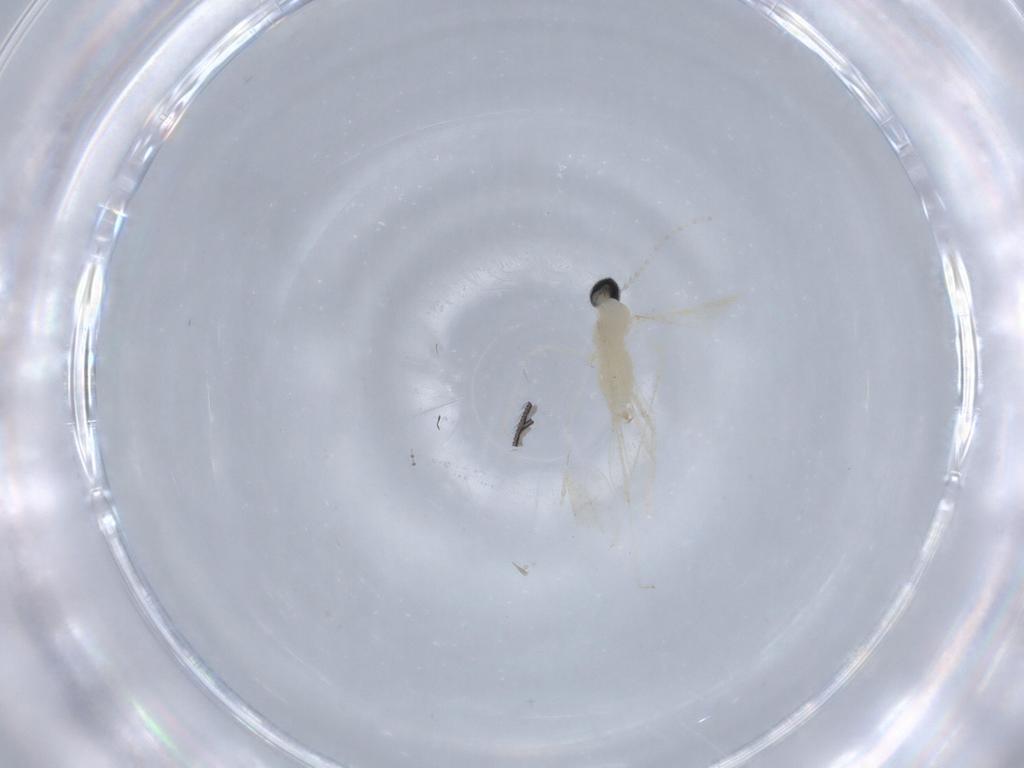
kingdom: Animalia
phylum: Arthropoda
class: Insecta
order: Diptera
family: Cecidomyiidae
